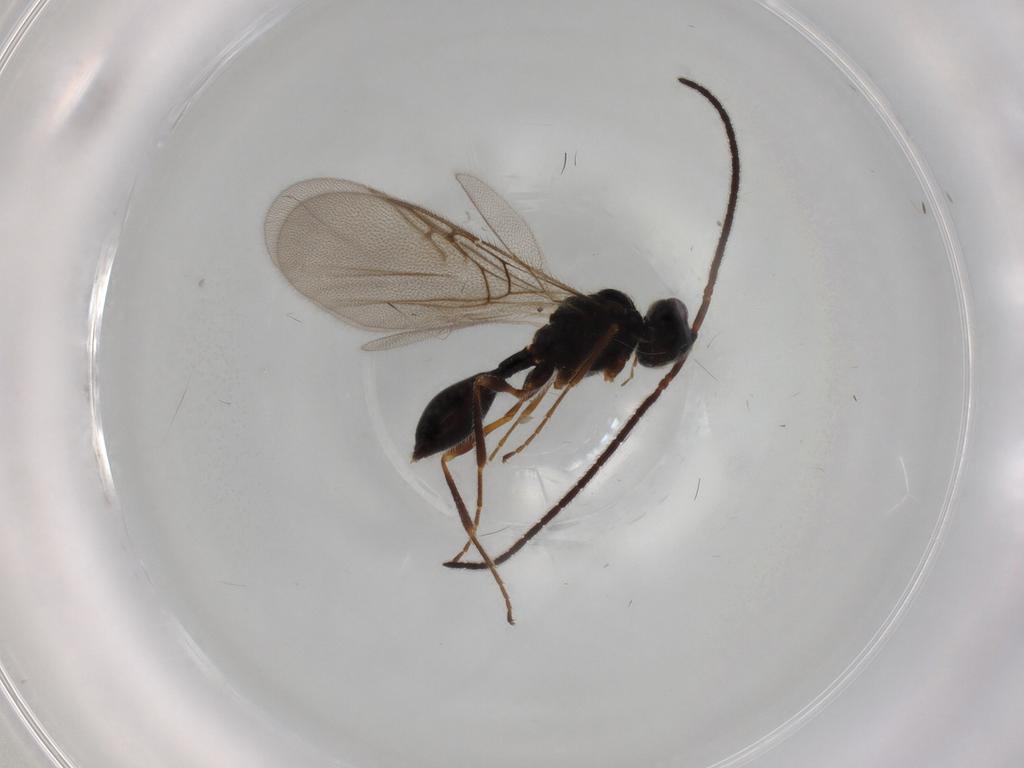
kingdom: Animalia
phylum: Arthropoda
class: Insecta
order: Hymenoptera
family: Diapriidae
